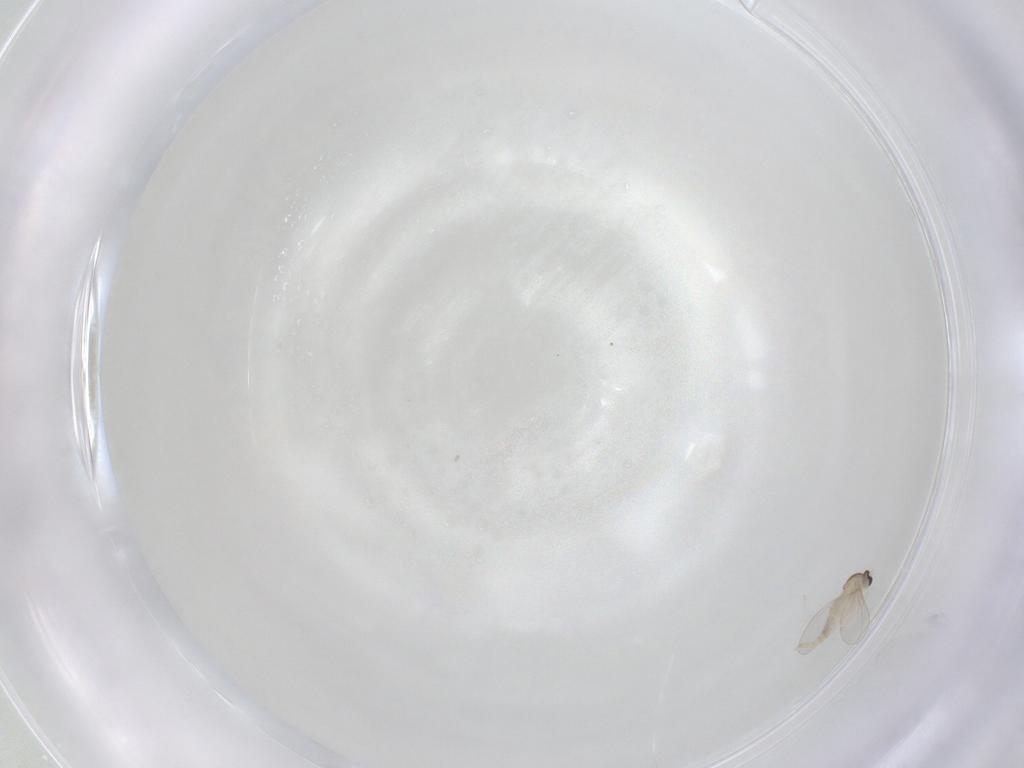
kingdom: Animalia
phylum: Arthropoda
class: Insecta
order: Diptera
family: Cecidomyiidae
